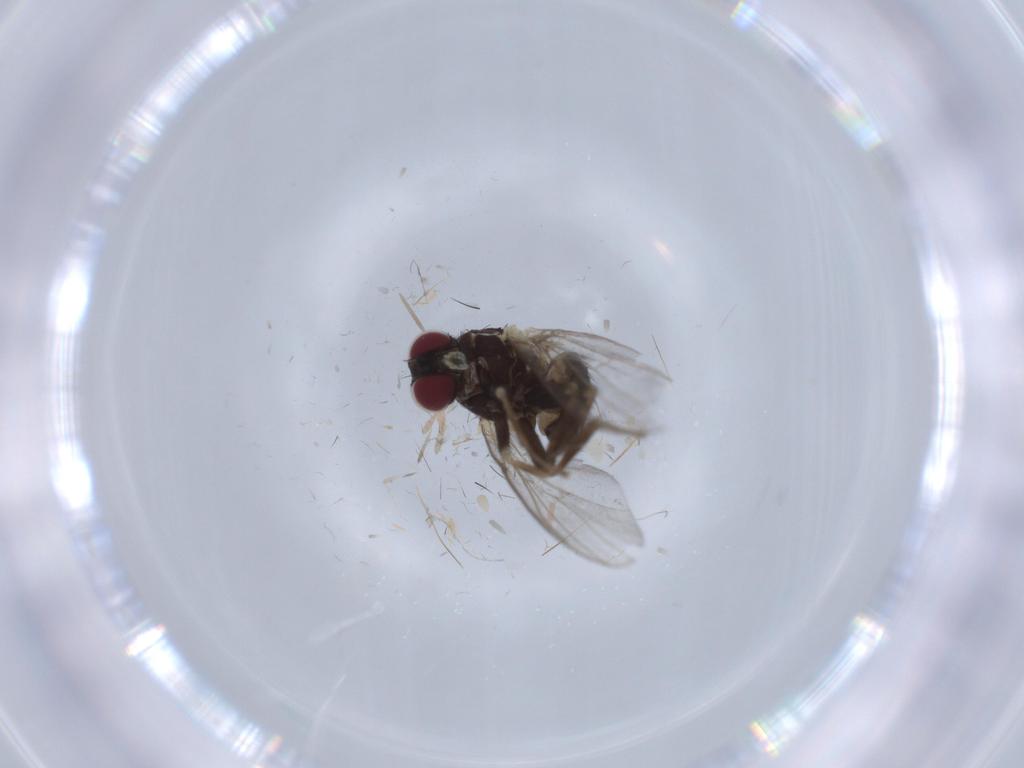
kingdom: Animalia
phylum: Arthropoda
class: Insecta
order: Diptera
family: Agromyzidae
